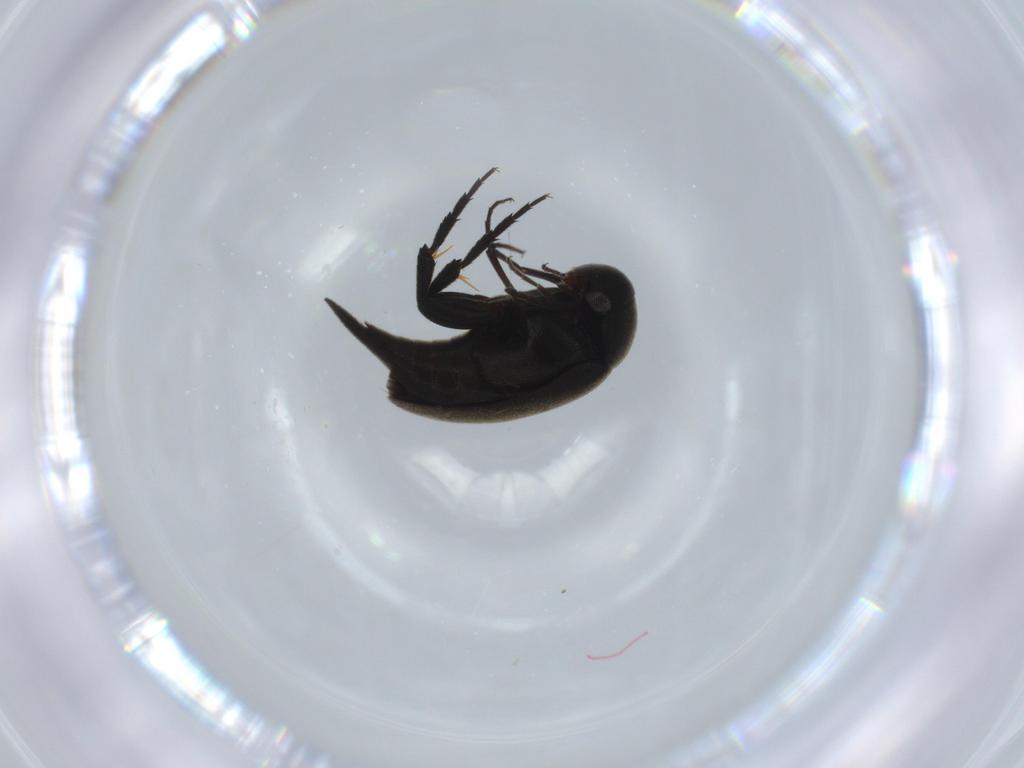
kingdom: Animalia
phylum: Arthropoda
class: Insecta
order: Coleoptera
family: Mordellidae
